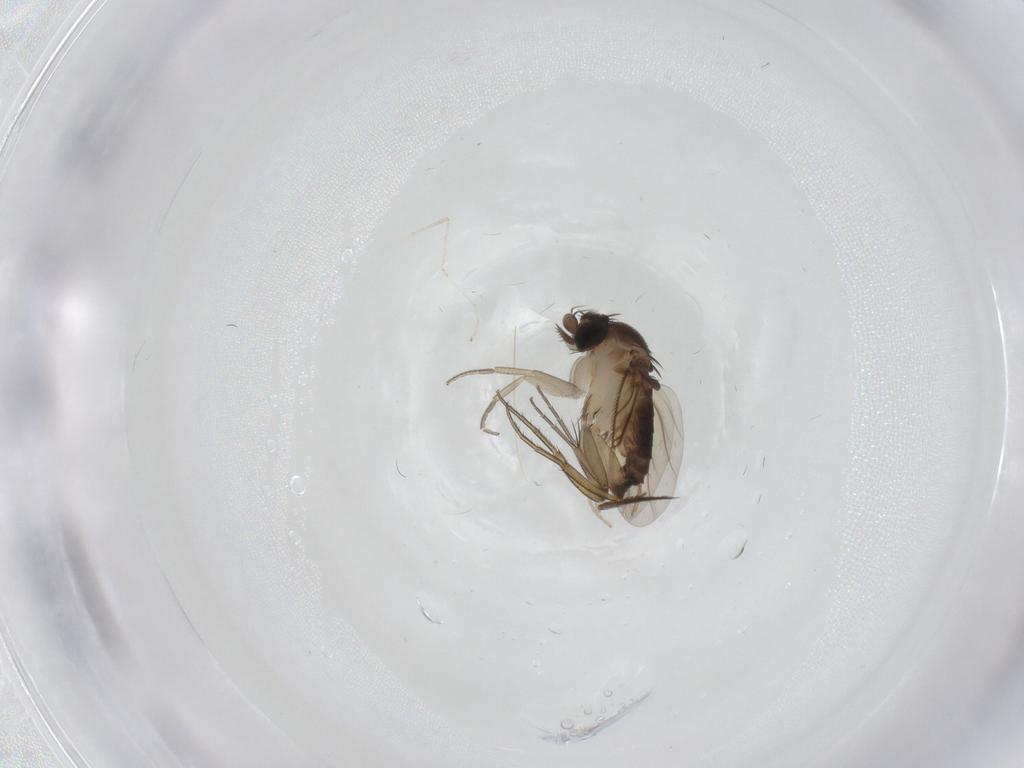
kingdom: Animalia
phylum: Arthropoda
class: Insecta
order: Diptera
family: Ceratopogonidae
